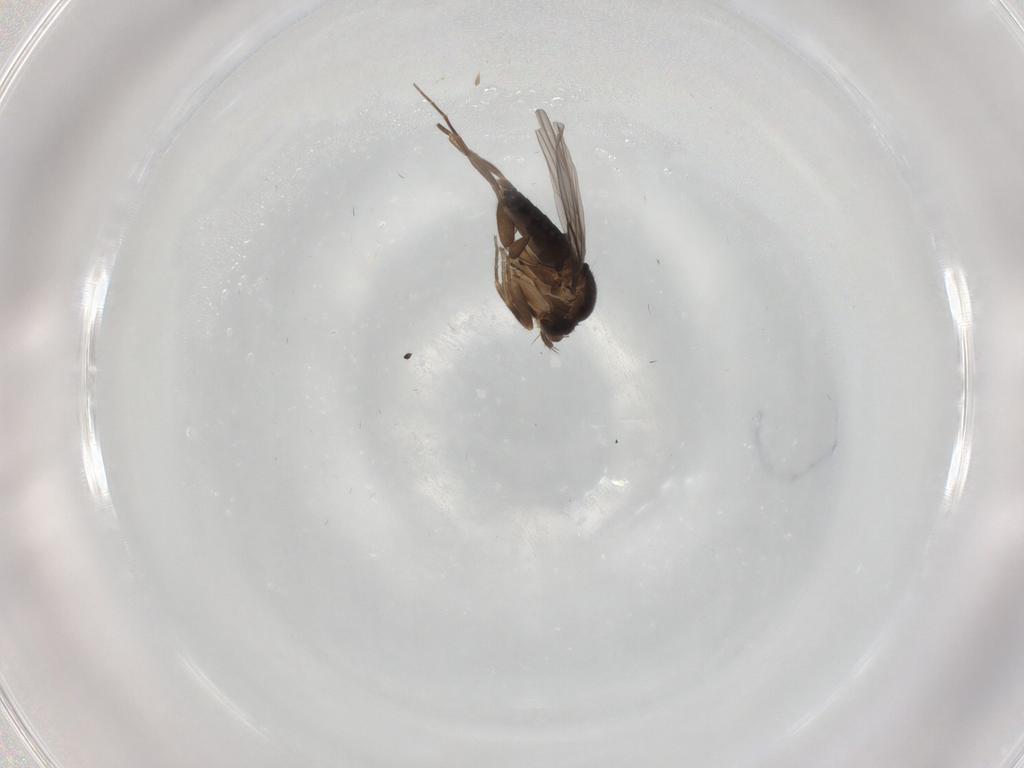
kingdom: Animalia
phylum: Arthropoda
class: Insecta
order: Diptera
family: Phoridae
